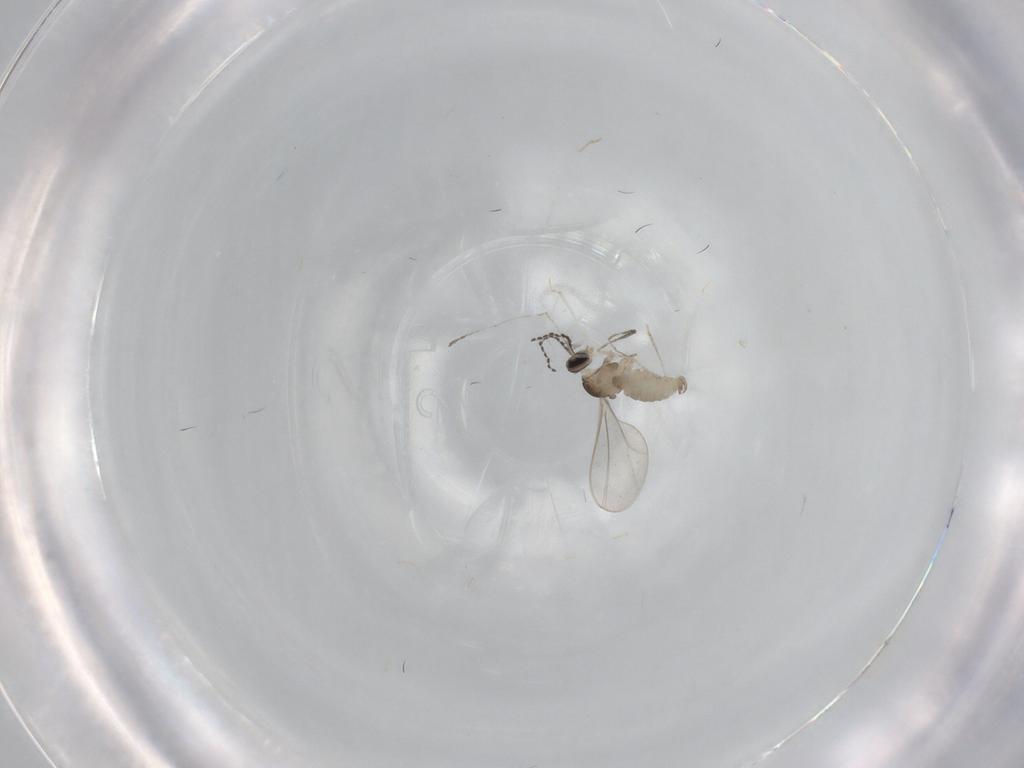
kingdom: Animalia
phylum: Arthropoda
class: Insecta
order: Diptera
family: Cecidomyiidae
